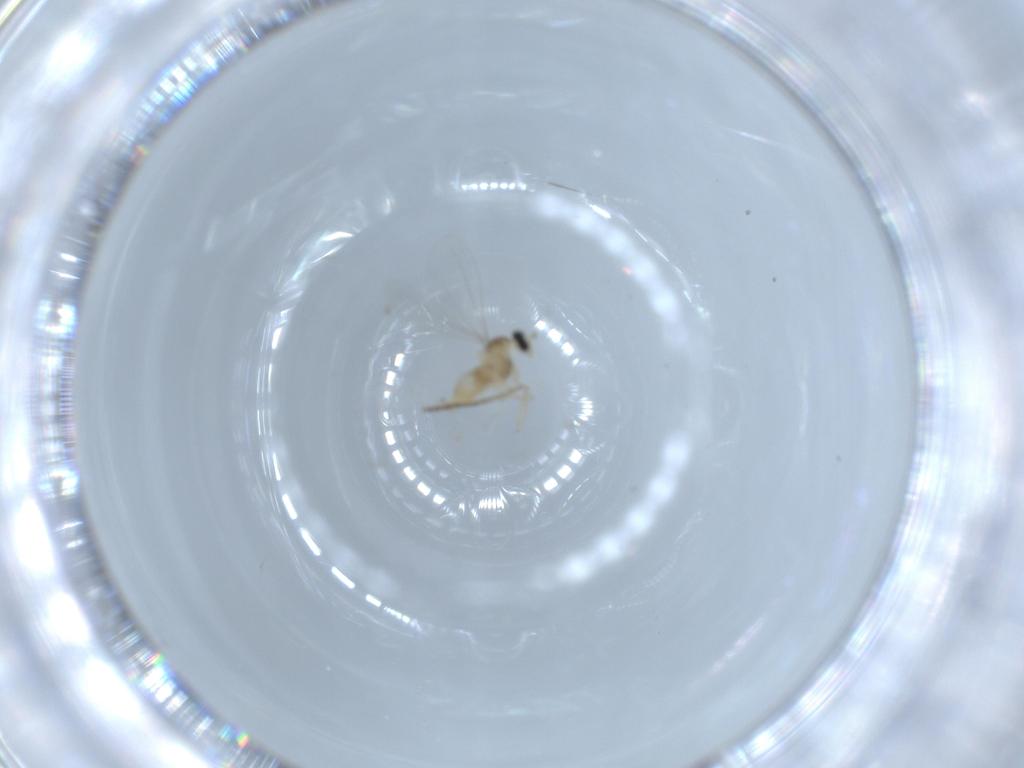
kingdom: Animalia
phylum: Arthropoda
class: Insecta
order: Diptera
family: Cecidomyiidae
